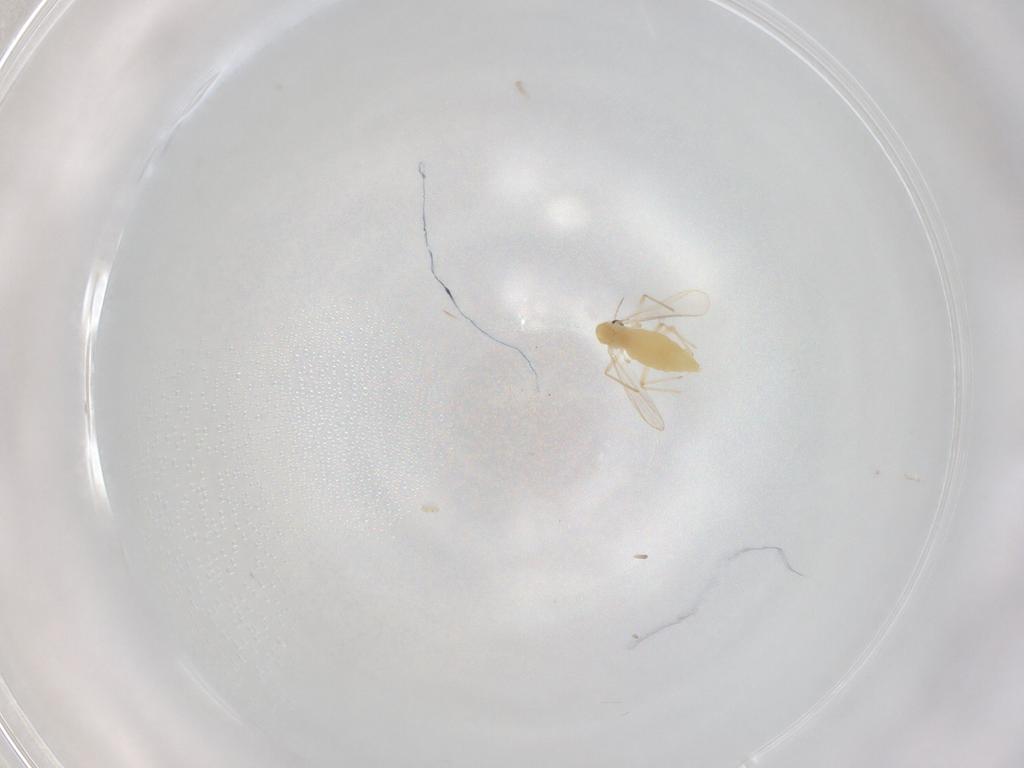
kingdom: Animalia
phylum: Arthropoda
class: Insecta
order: Diptera
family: Chironomidae
